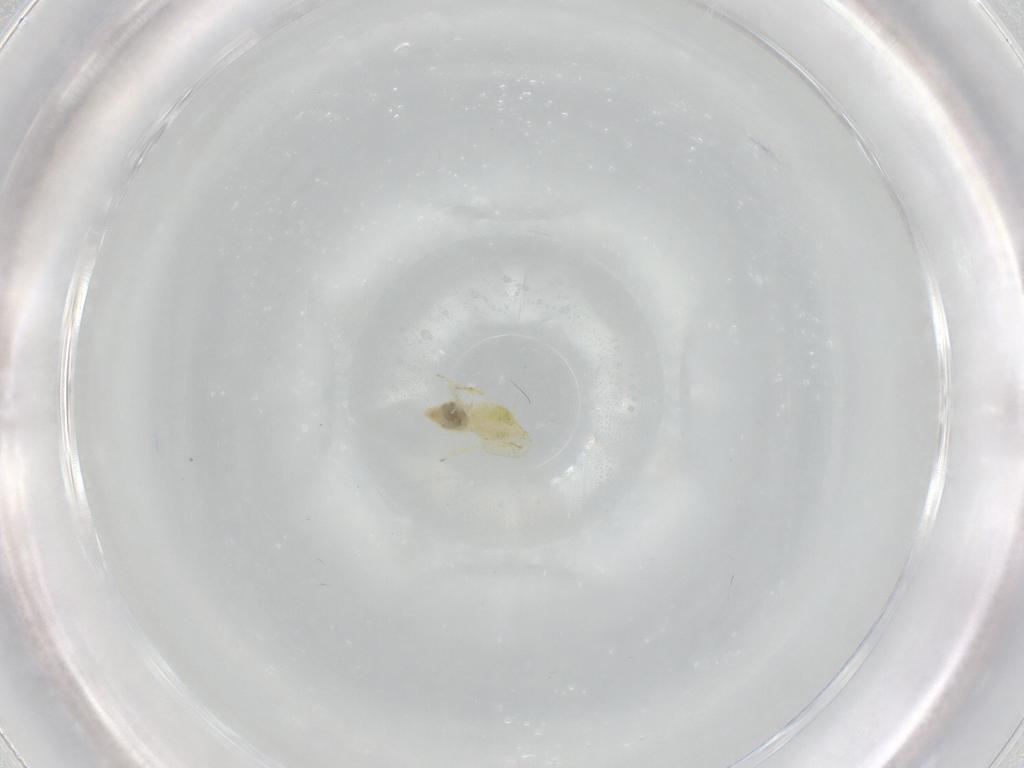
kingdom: Animalia
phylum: Arthropoda
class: Insecta
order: Hemiptera
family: Aleyrodidae
